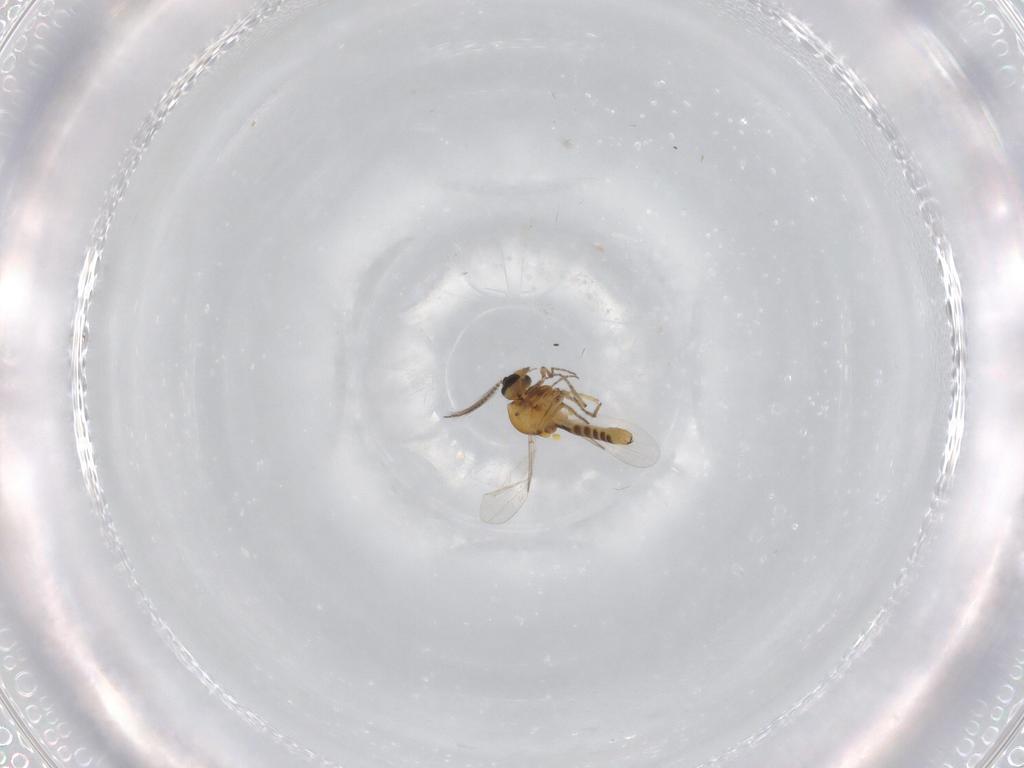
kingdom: Animalia
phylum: Arthropoda
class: Insecta
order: Diptera
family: Ceratopogonidae
